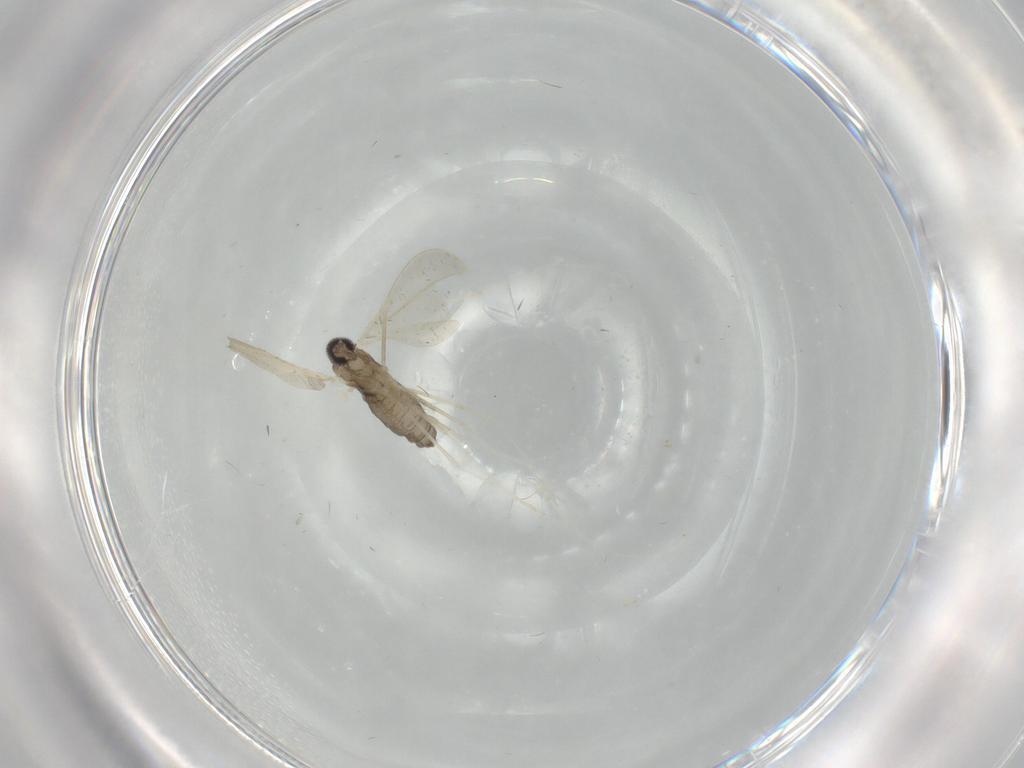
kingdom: Animalia
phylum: Arthropoda
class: Insecta
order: Diptera
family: Cecidomyiidae
